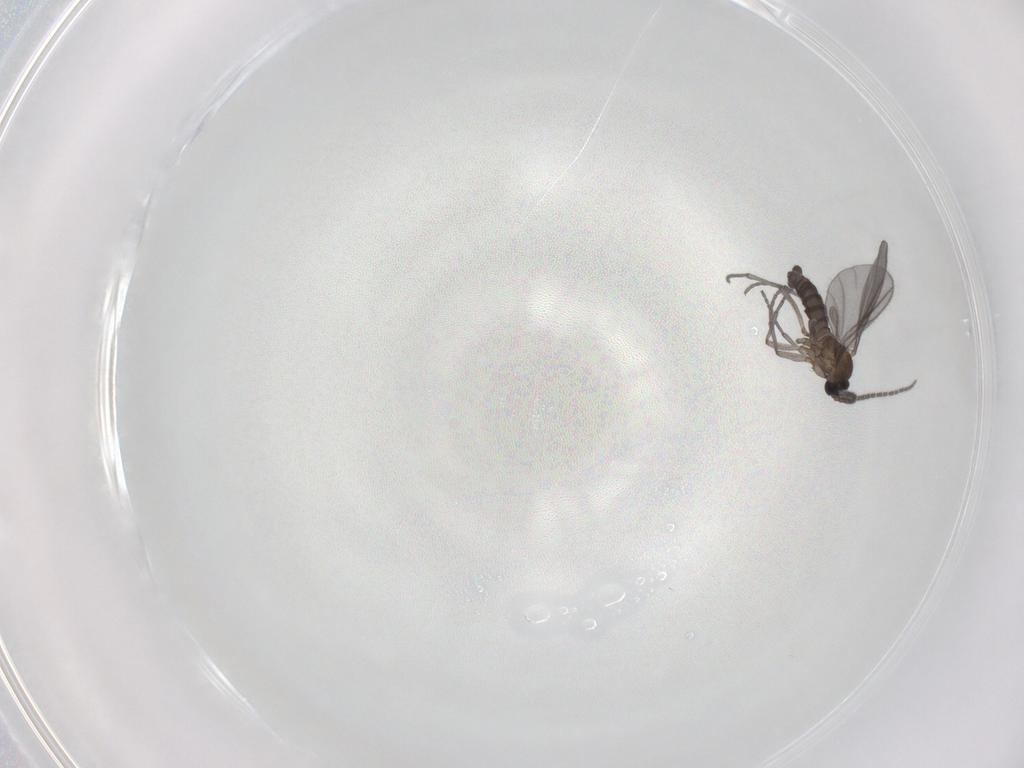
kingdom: Animalia
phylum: Arthropoda
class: Insecta
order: Diptera
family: Sciaridae
